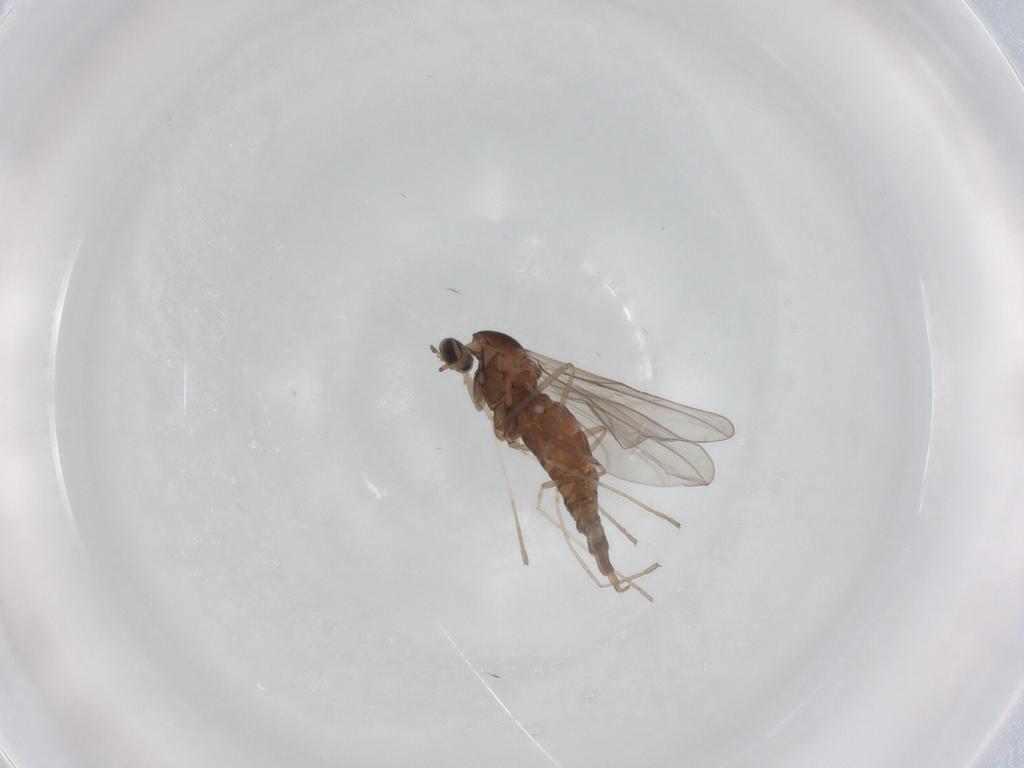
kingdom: Animalia
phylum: Arthropoda
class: Insecta
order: Diptera
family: Cecidomyiidae
